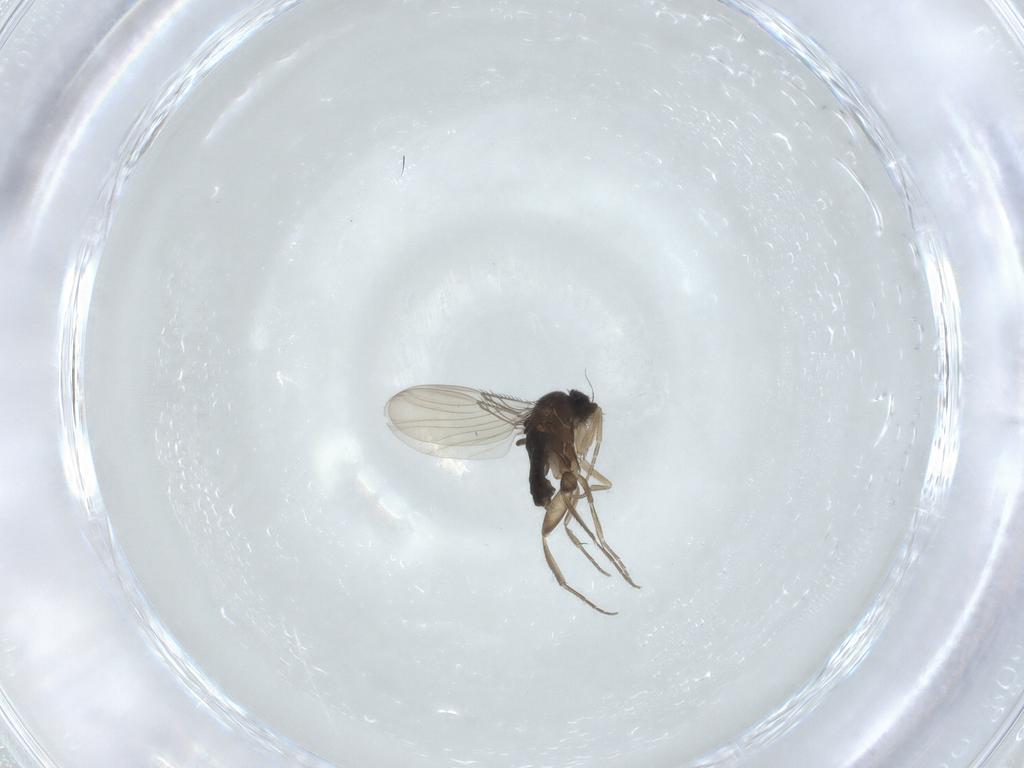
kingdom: Animalia
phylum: Arthropoda
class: Insecta
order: Diptera
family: Phoridae
